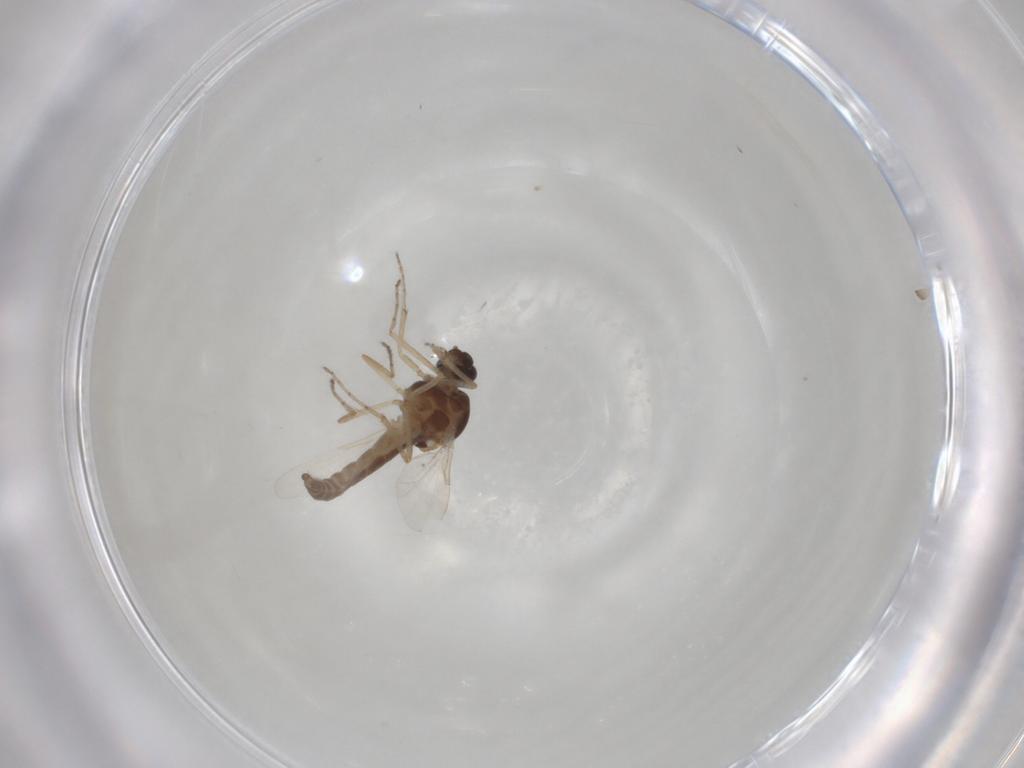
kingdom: Animalia
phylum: Arthropoda
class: Insecta
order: Diptera
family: Ceratopogonidae
